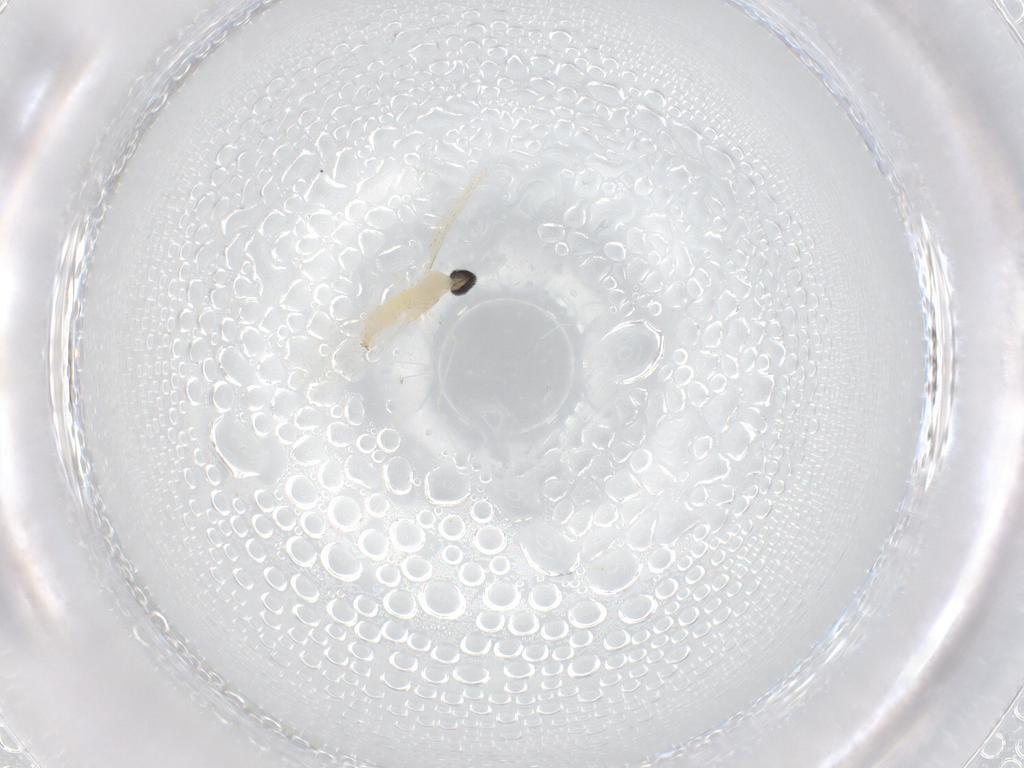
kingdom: Animalia
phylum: Arthropoda
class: Insecta
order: Diptera
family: Cecidomyiidae
